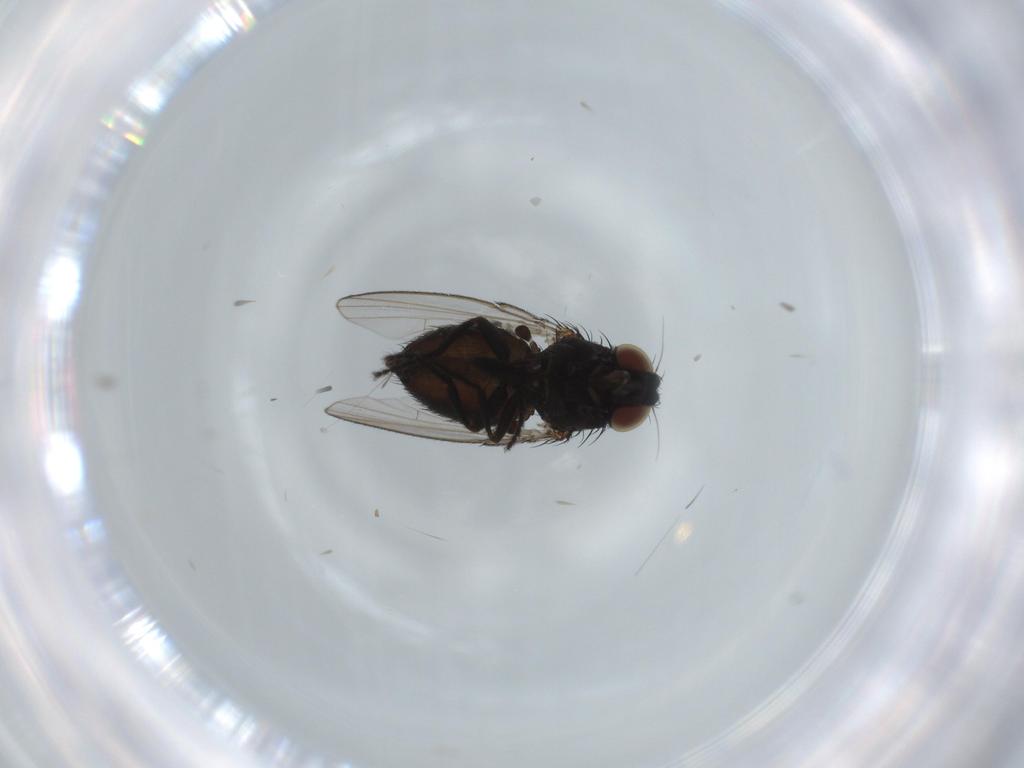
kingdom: Animalia
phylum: Arthropoda
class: Insecta
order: Diptera
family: Milichiidae
